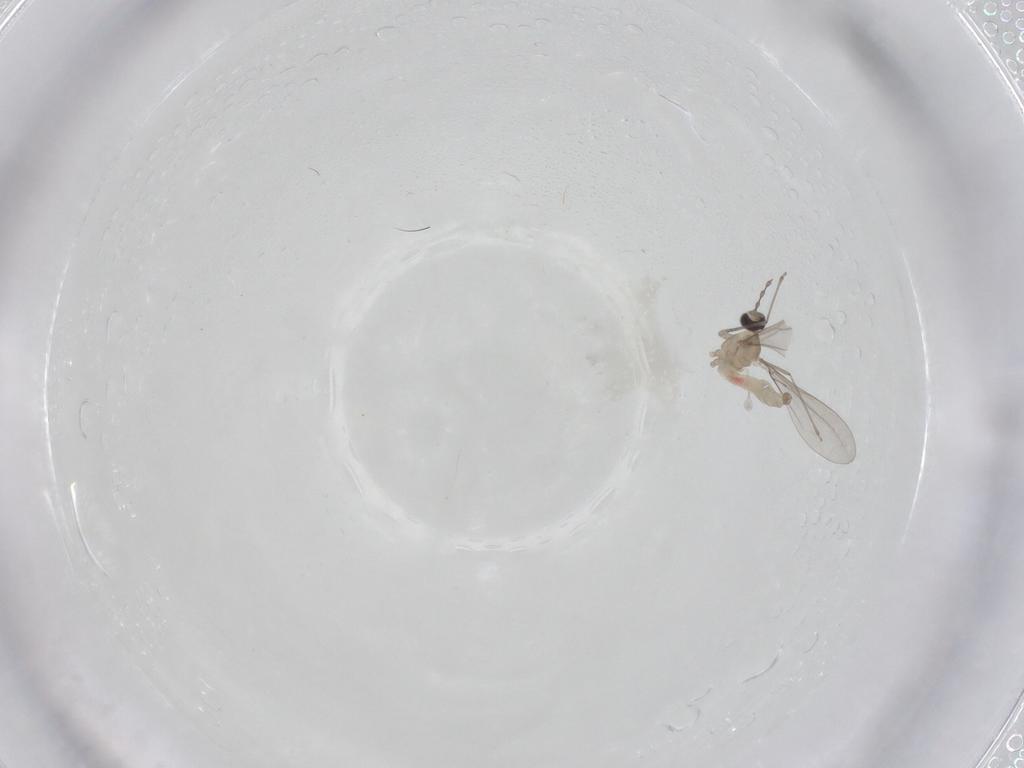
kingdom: Animalia
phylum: Arthropoda
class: Insecta
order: Diptera
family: Cecidomyiidae
